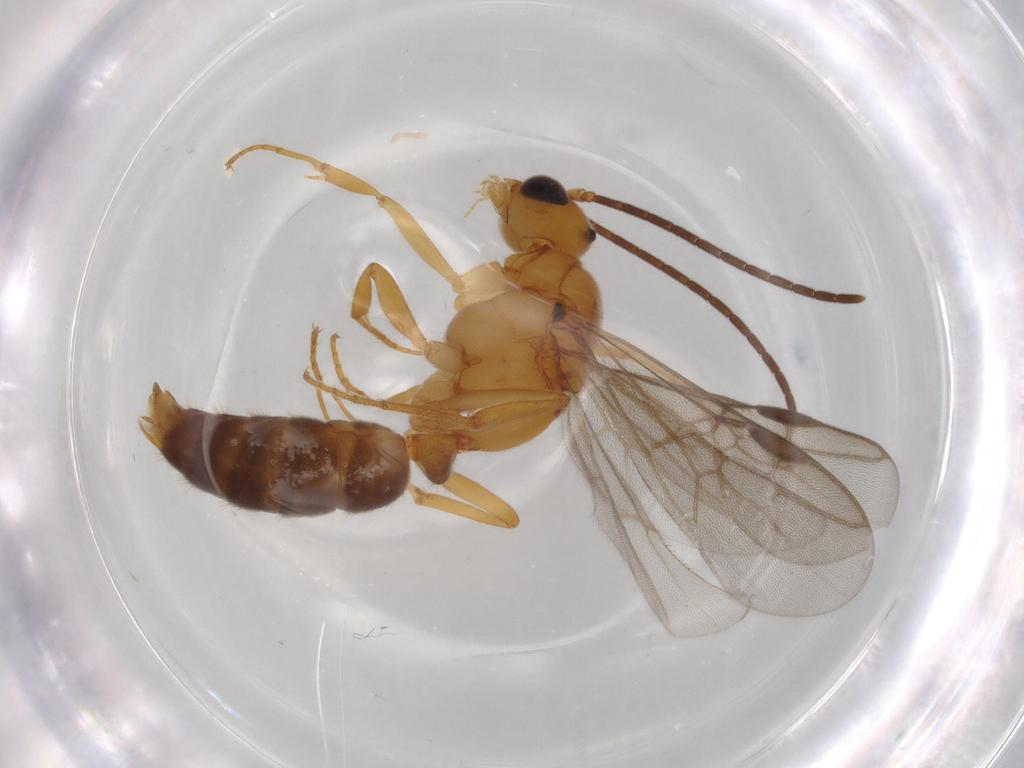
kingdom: Animalia
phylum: Arthropoda
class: Insecta
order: Hymenoptera
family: Formicidae
